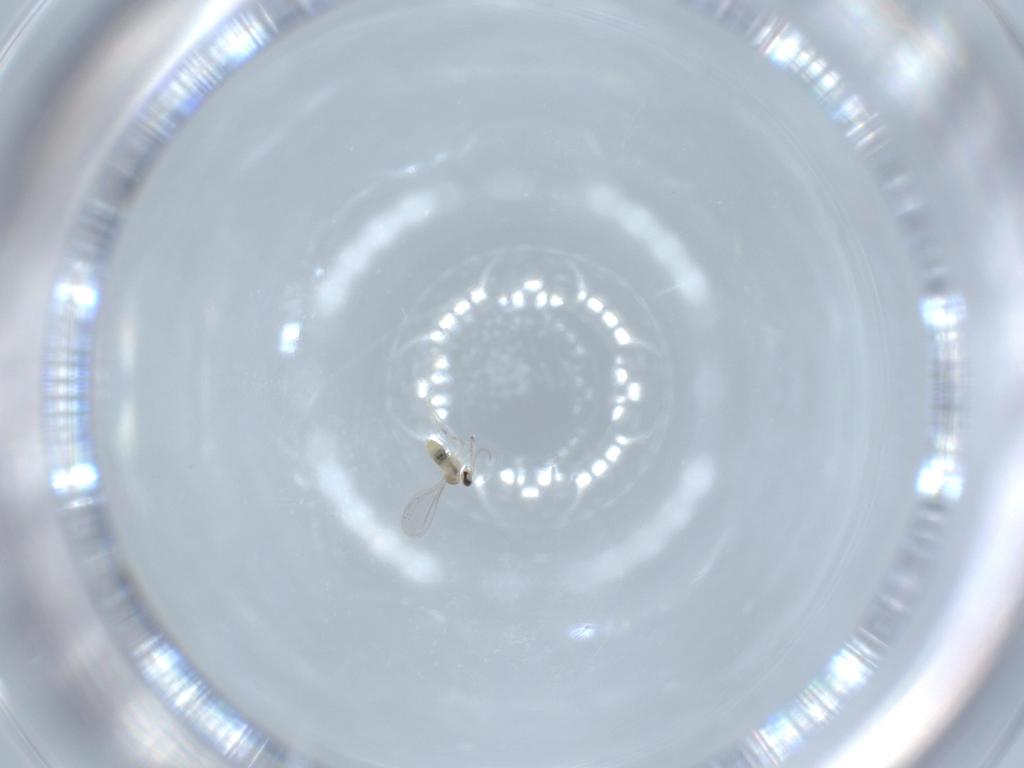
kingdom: Animalia
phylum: Arthropoda
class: Insecta
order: Diptera
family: Cecidomyiidae
